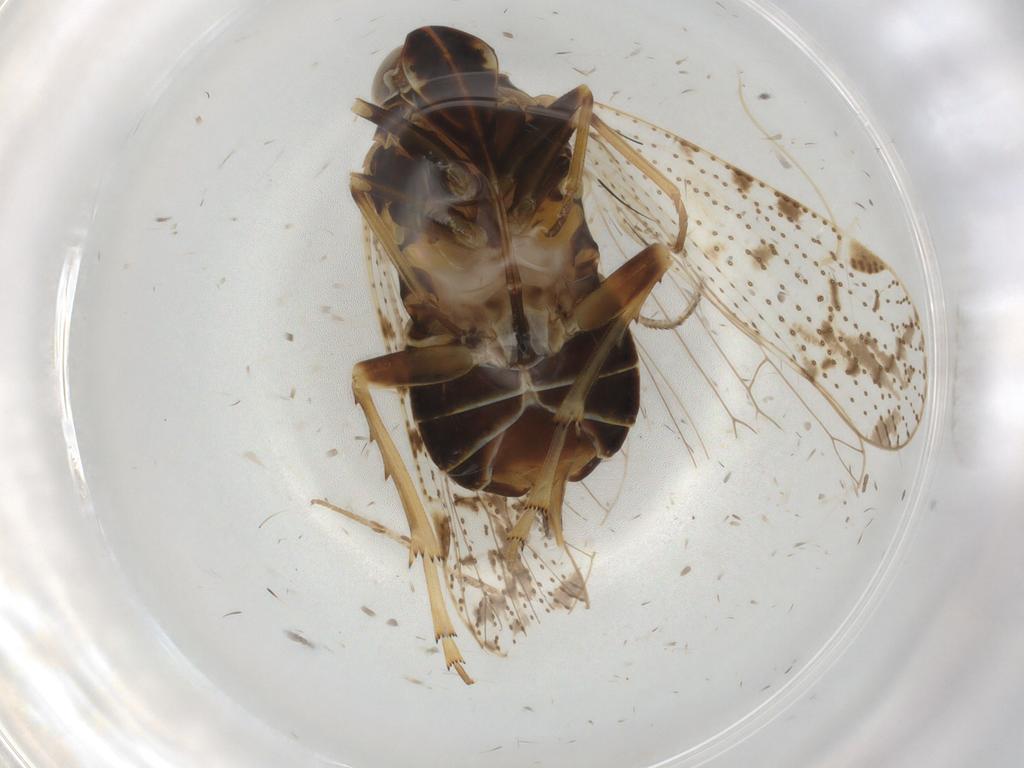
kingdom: Animalia
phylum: Arthropoda
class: Insecta
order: Hemiptera
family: Cixiidae
